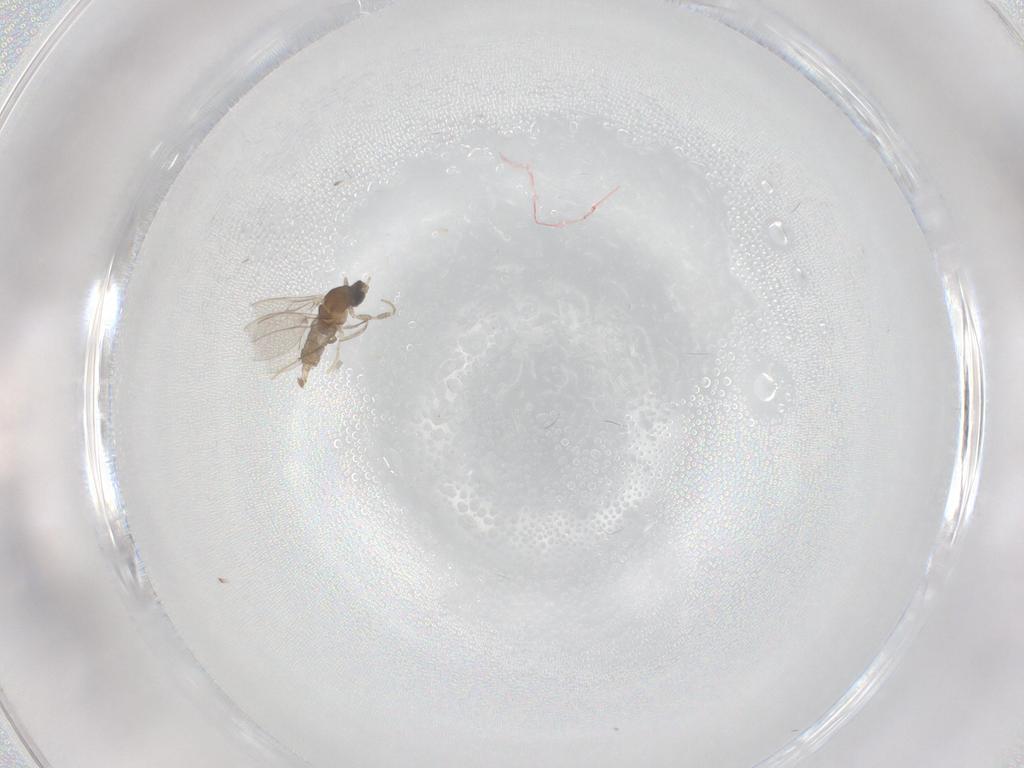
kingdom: Animalia
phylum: Arthropoda
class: Insecta
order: Diptera
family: Cecidomyiidae
